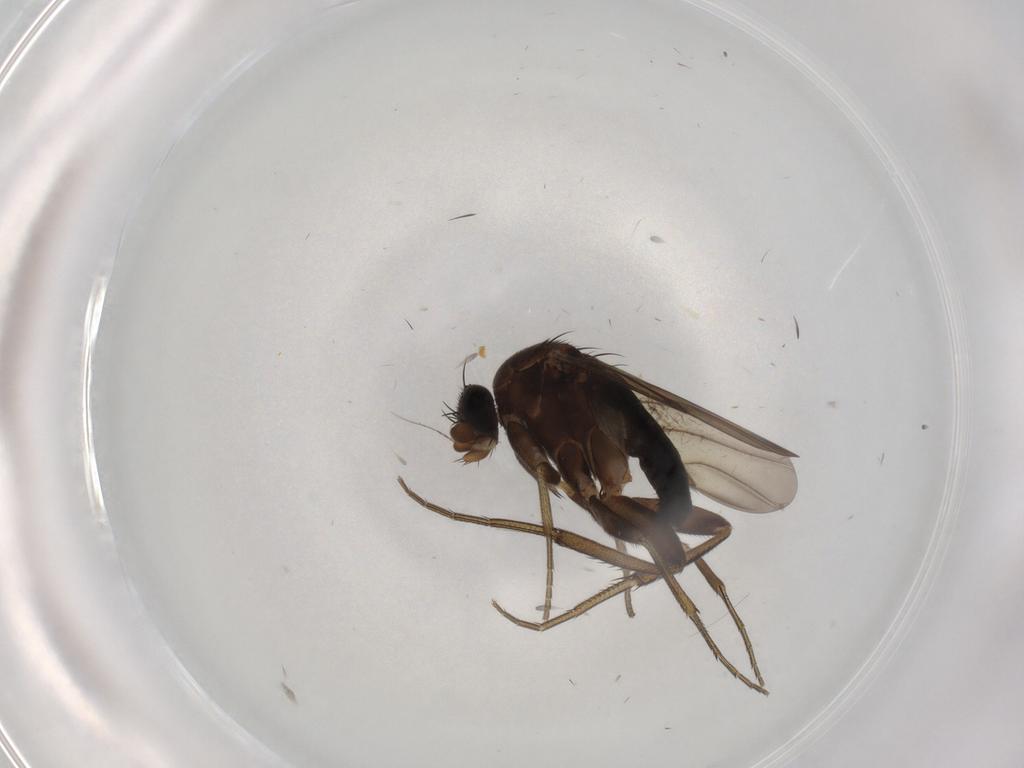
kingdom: Animalia
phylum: Arthropoda
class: Insecta
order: Diptera
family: Phoridae
